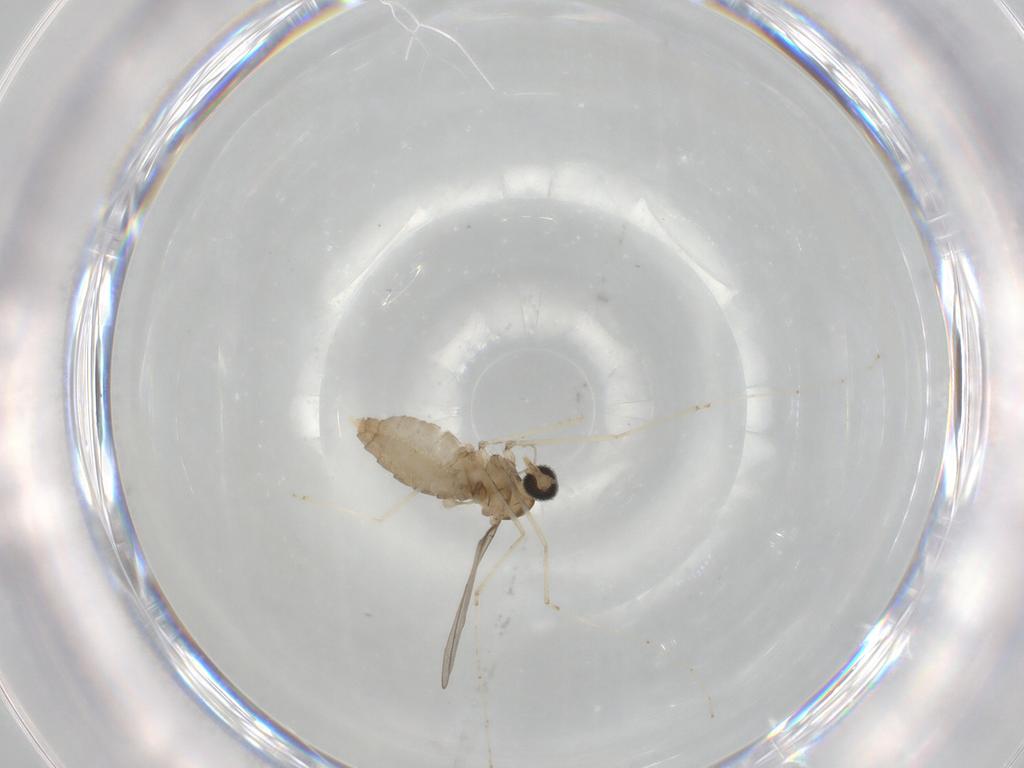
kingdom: Animalia
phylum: Arthropoda
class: Insecta
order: Diptera
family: Cecidomyiidae
